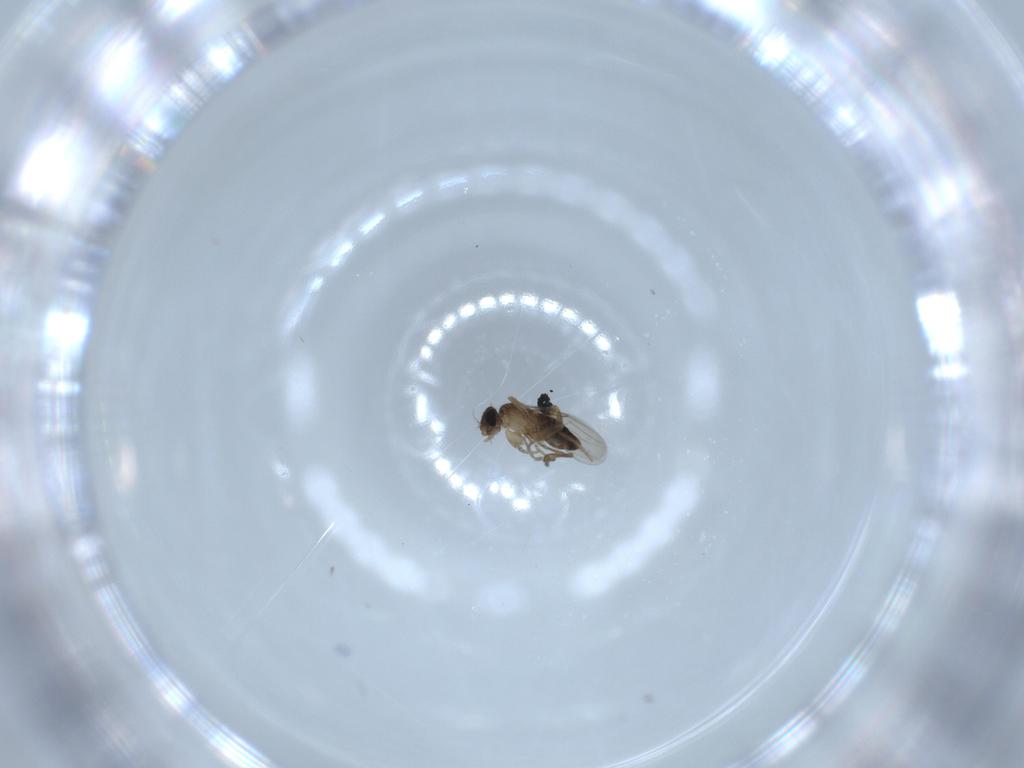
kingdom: Animalia
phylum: Arthropoda
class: Insecta
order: Diptera
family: Phoridae
